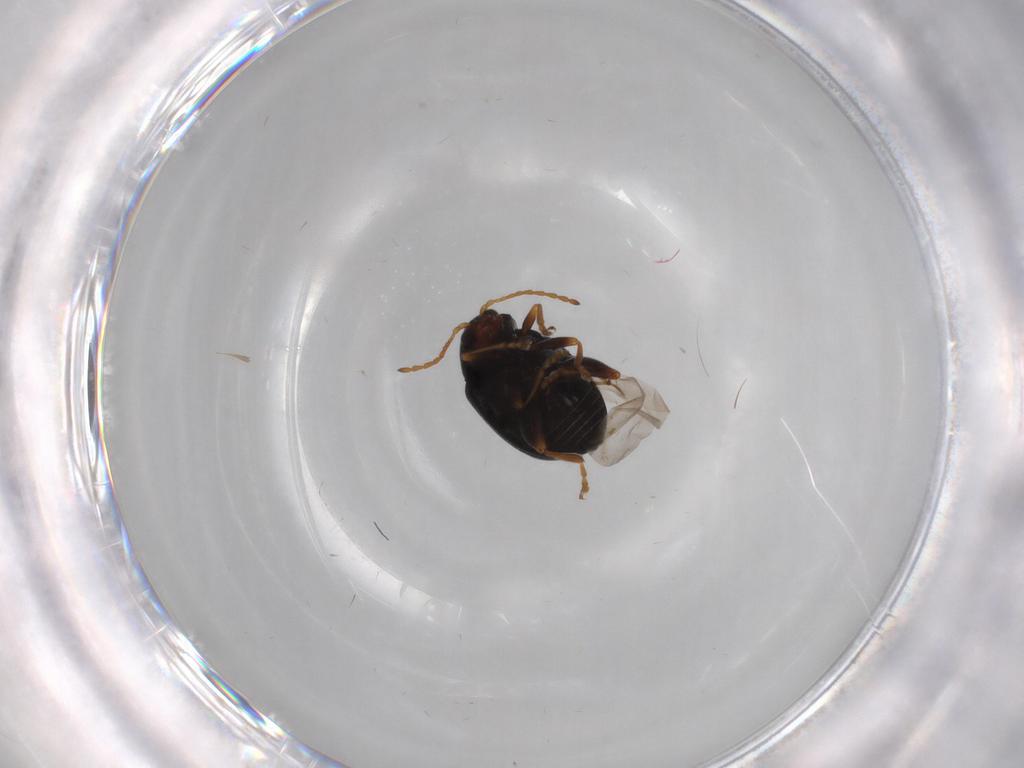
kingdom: Animalia
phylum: Arthropoda
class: Insecta
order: Coleoptera
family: Chrysomelidae
